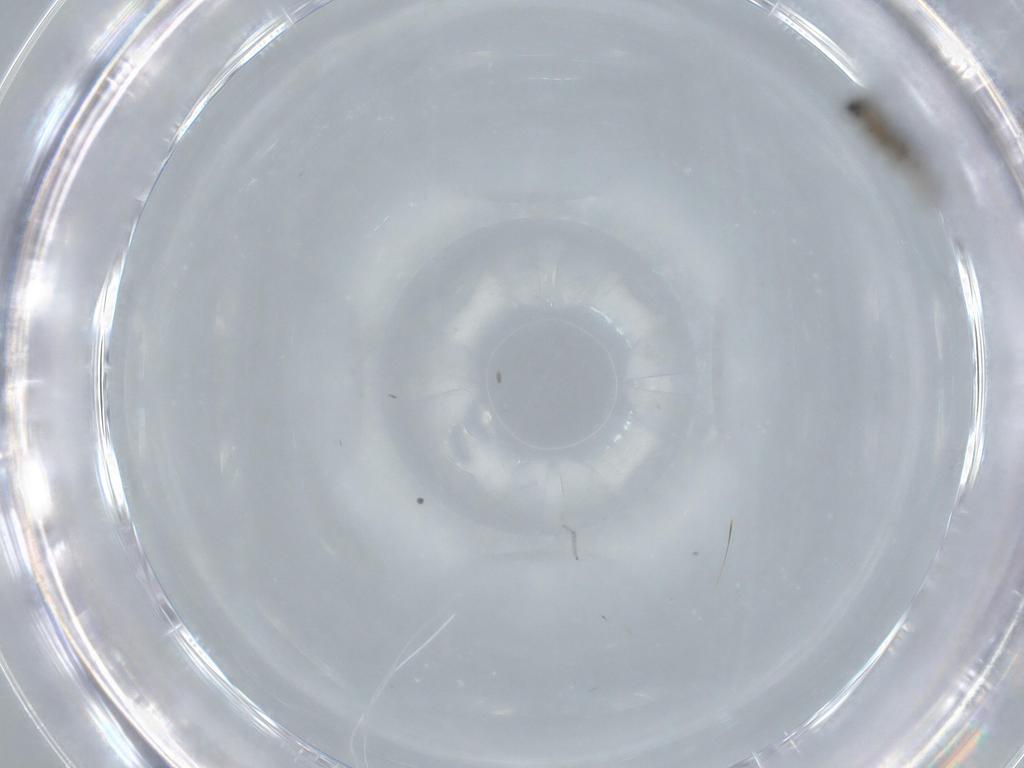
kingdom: Animalia
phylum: Arthropoda
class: Insecta
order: Diptera
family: Cecidomyiidae
